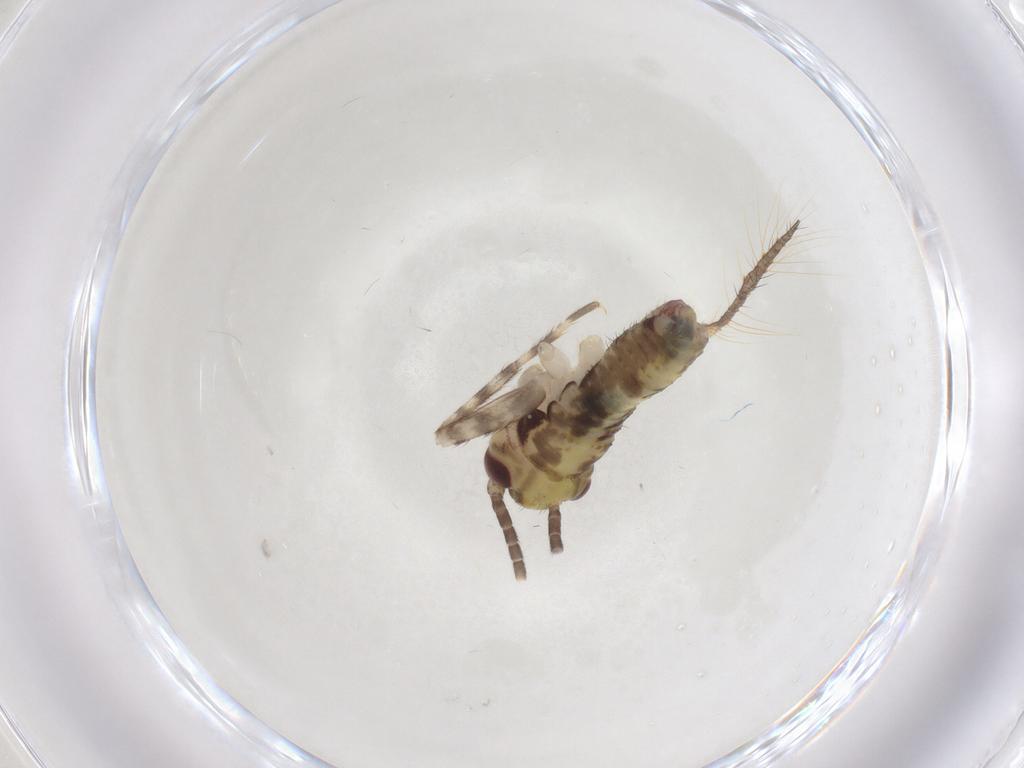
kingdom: Animalia
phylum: Arthropoda
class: Insecta
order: Orthoptera
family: Gryllidae
